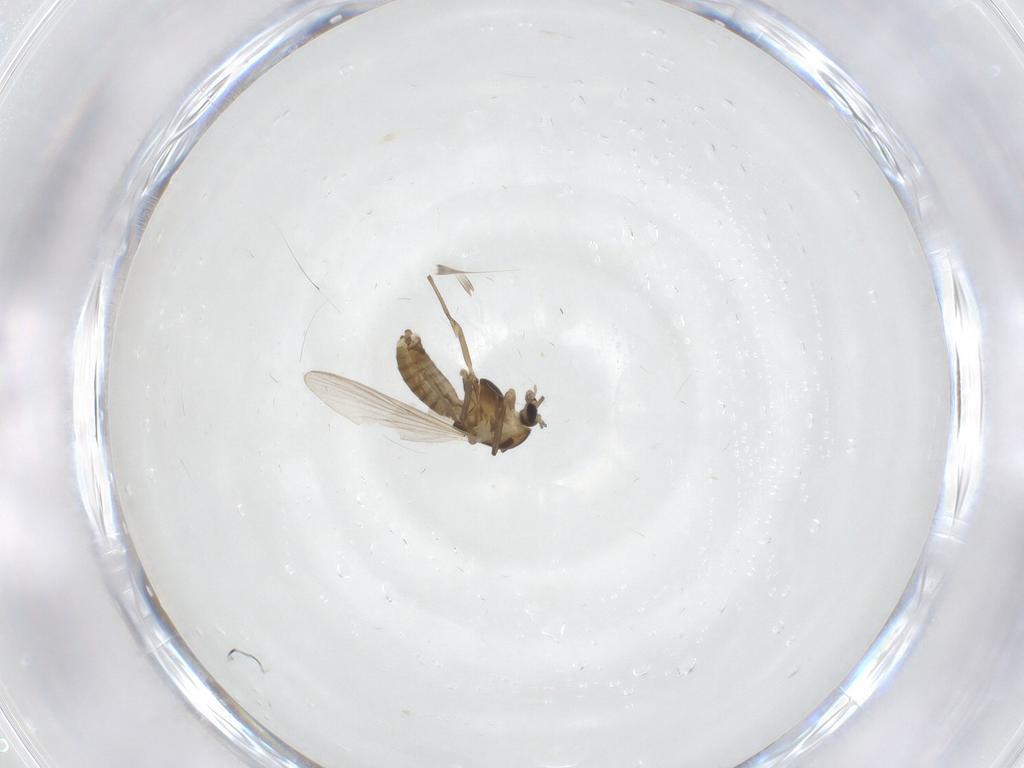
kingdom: Animalia
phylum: Arthropoda
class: Insecta
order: Diptera
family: Chironomidae
